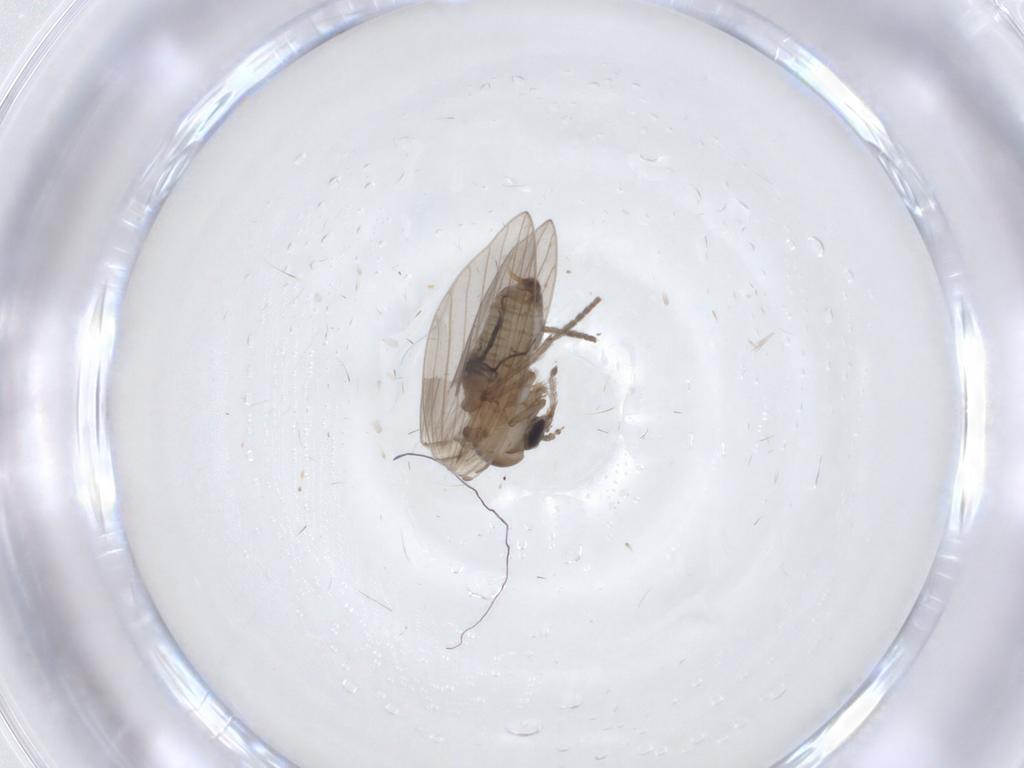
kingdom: Animalia
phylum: Arthropoda
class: Insecta
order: Diptera
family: Psychodidae
